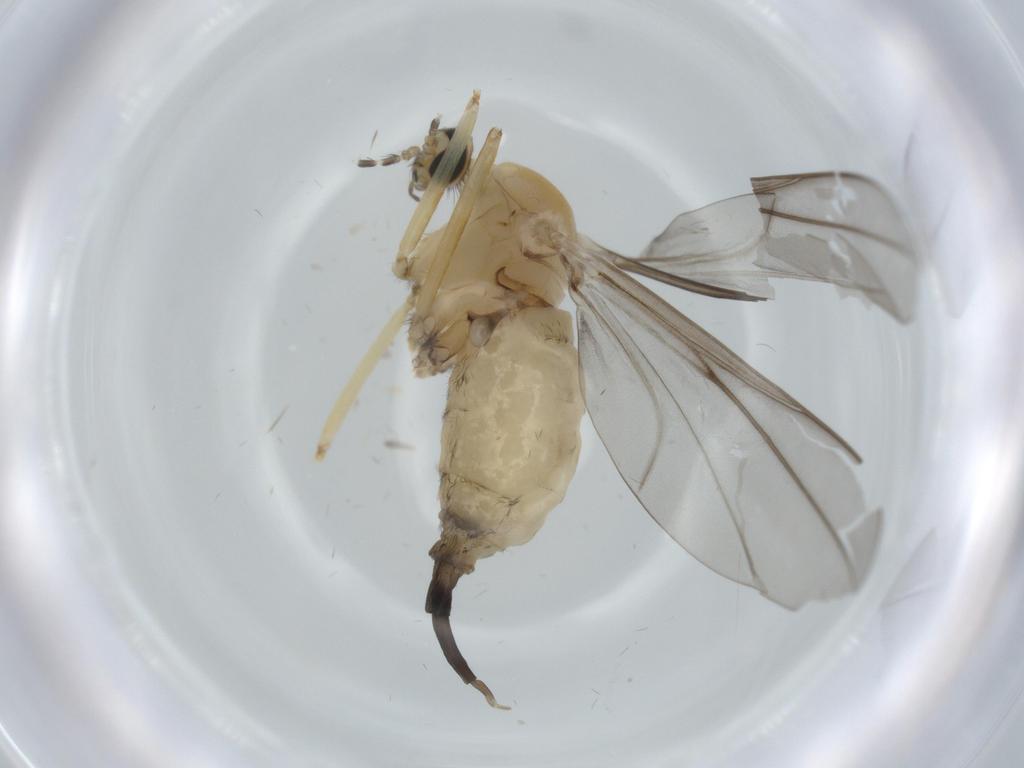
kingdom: Animalia
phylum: Arthropoda
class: Insecta
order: Diptera
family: Milichiidae
